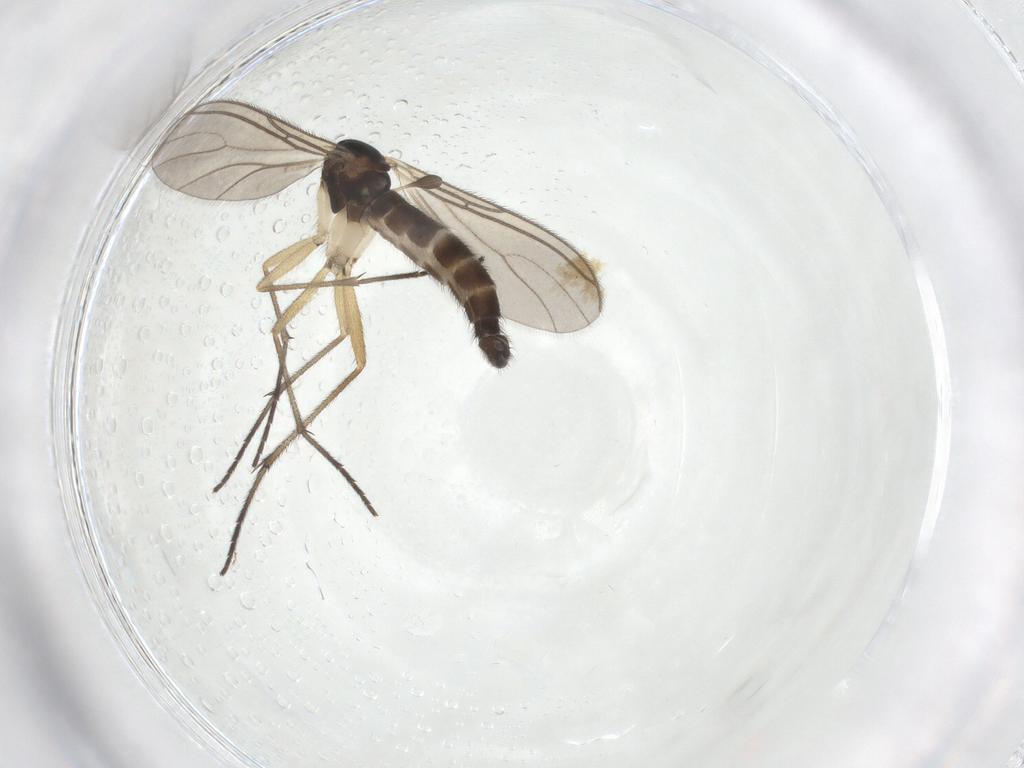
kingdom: Animalia
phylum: Arthropoda
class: Insecta
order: Diptera
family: Sciaridae
